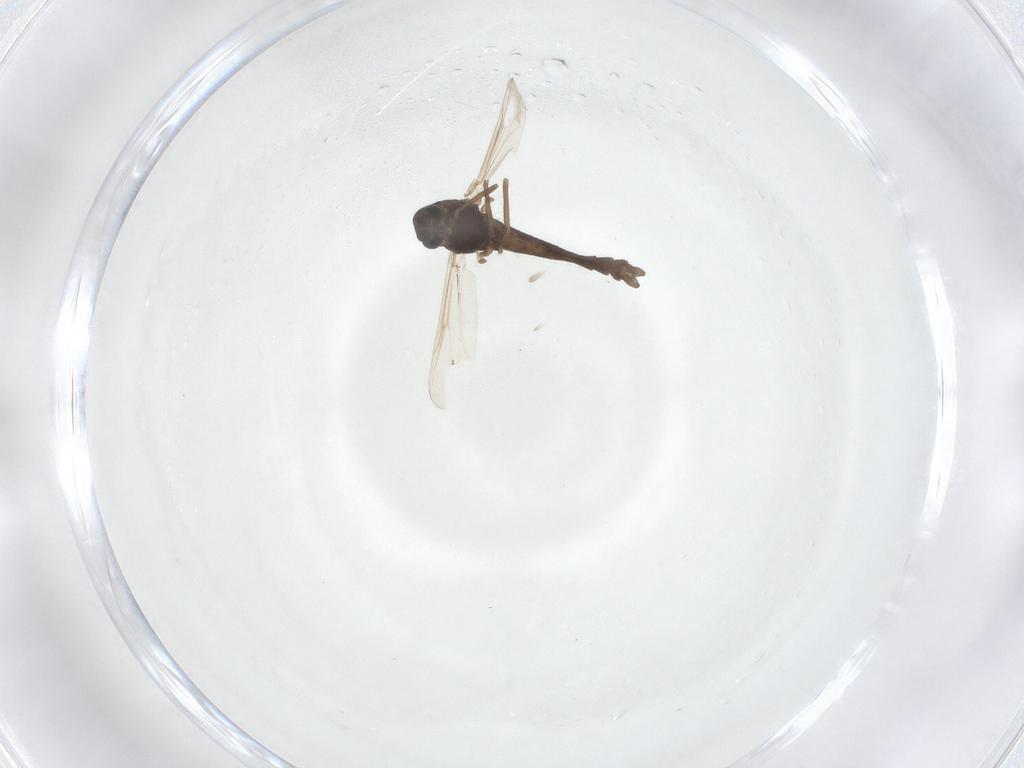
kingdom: Animalia
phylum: Arthropoda
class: Insecta
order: Diptera
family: Chironomidae
